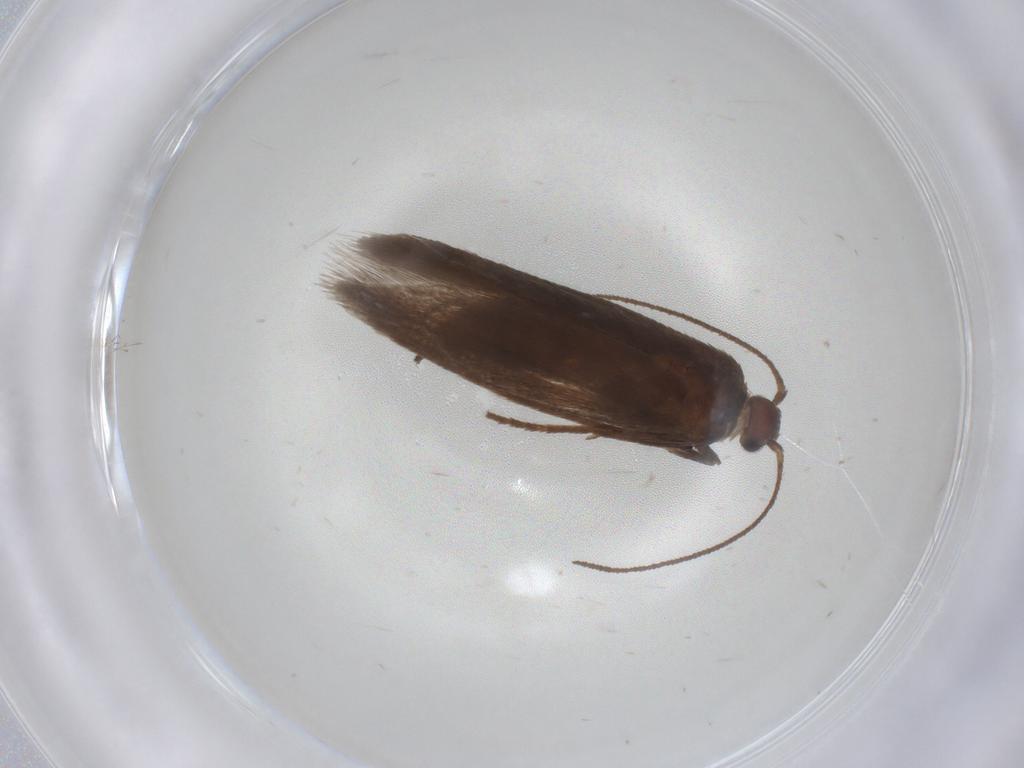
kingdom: Animalia
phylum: Arthropoda
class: Insecta
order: Lepidoptera
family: Limacodidae
